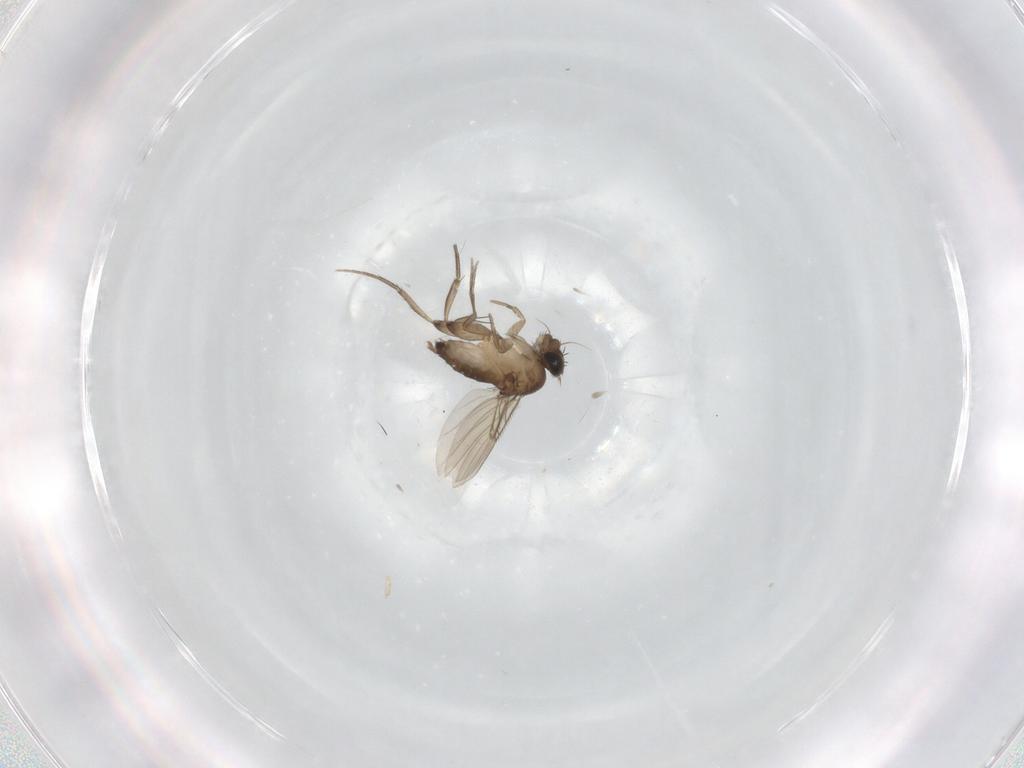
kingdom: Animalia
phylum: Arthropoda
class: Insecta
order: Diptera
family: Phoridae
